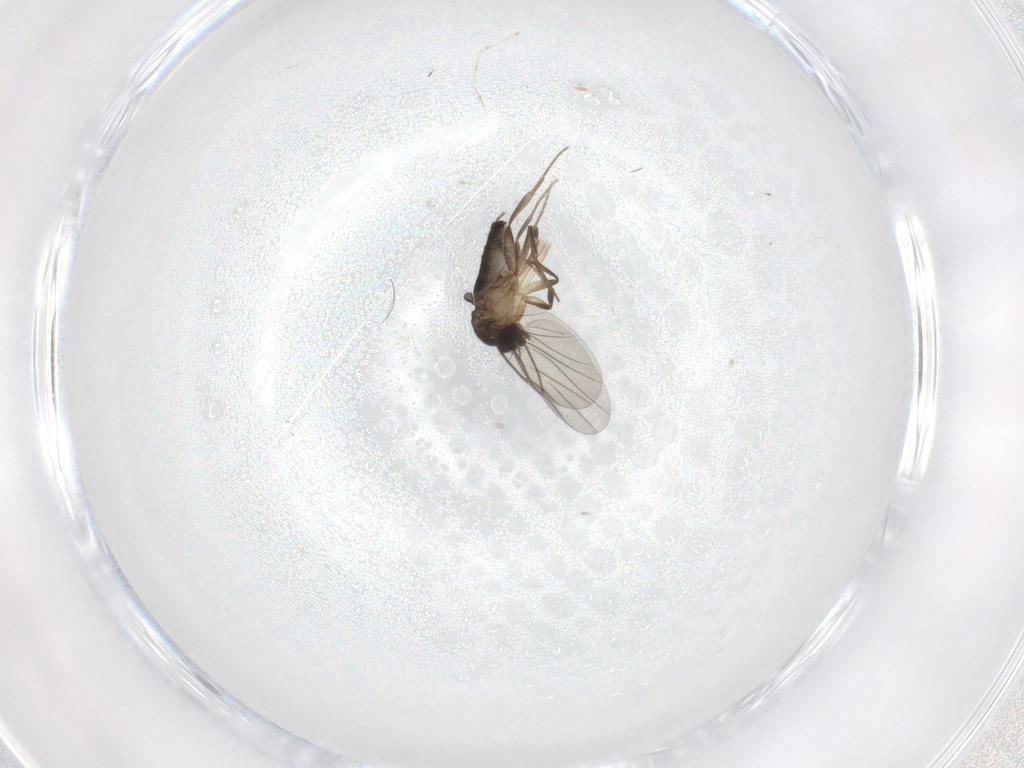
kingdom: Animalia
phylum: Arthropoda
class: Insecta
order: Diptera
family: Phoridae
